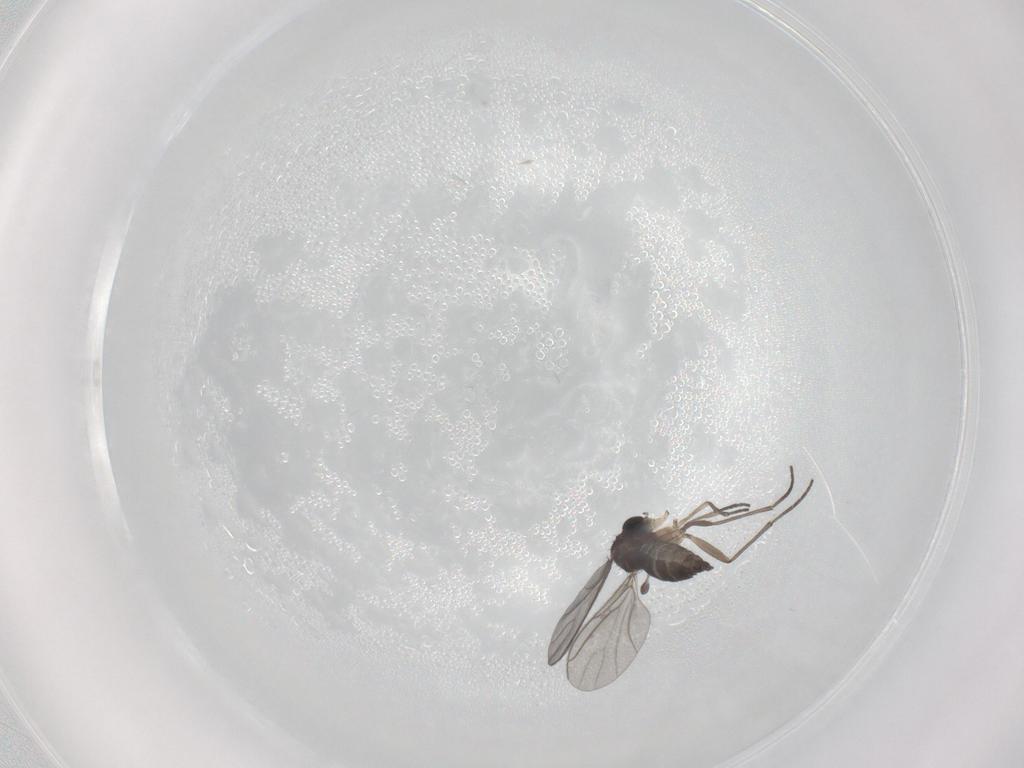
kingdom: Animalia
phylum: Arthropoda
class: Insecta
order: Diptera
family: Sciaridae
